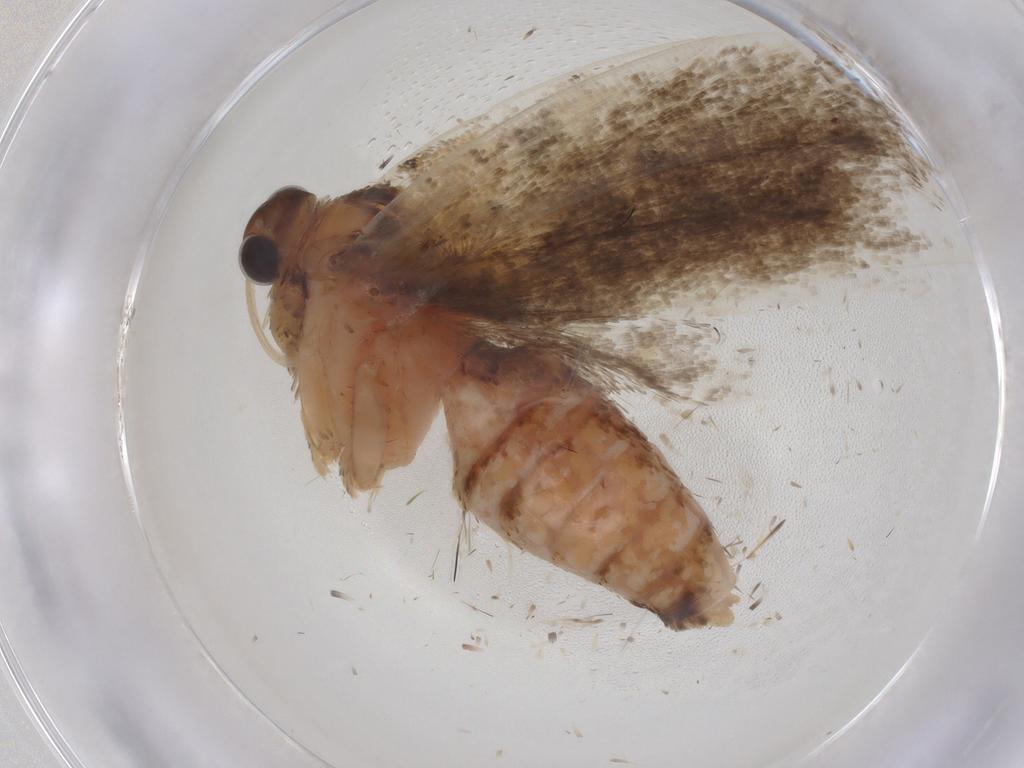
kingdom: Animalia
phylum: Arthropoda
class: Insecta
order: Lepidoptera
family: Tortricidae
